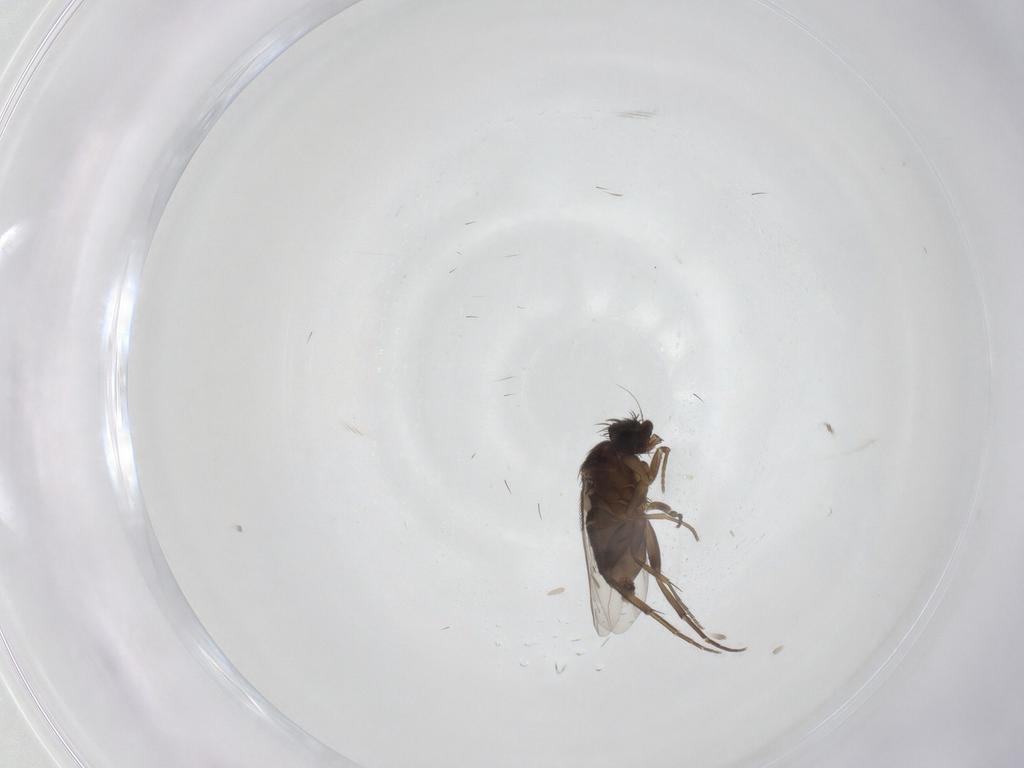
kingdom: Animalia
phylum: Arthropoda
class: Insecta
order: Diptera
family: Phoridae
